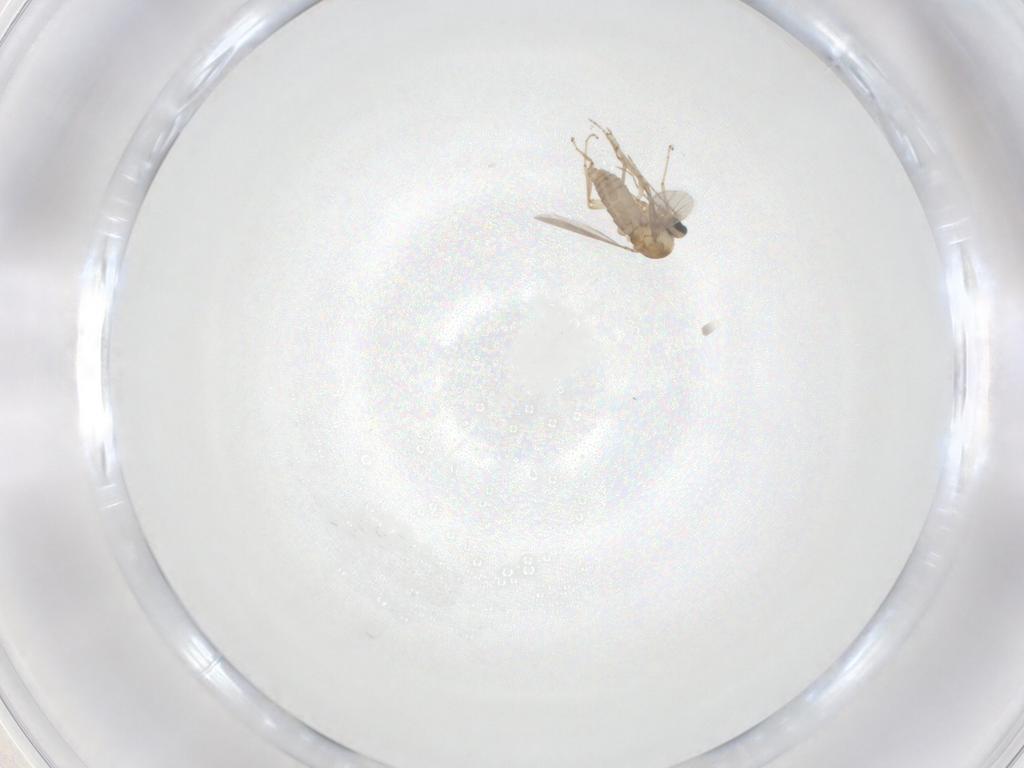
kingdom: Animalia
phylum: Arthropoda
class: Insecta
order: Diptera
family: Ceratopogonidae
